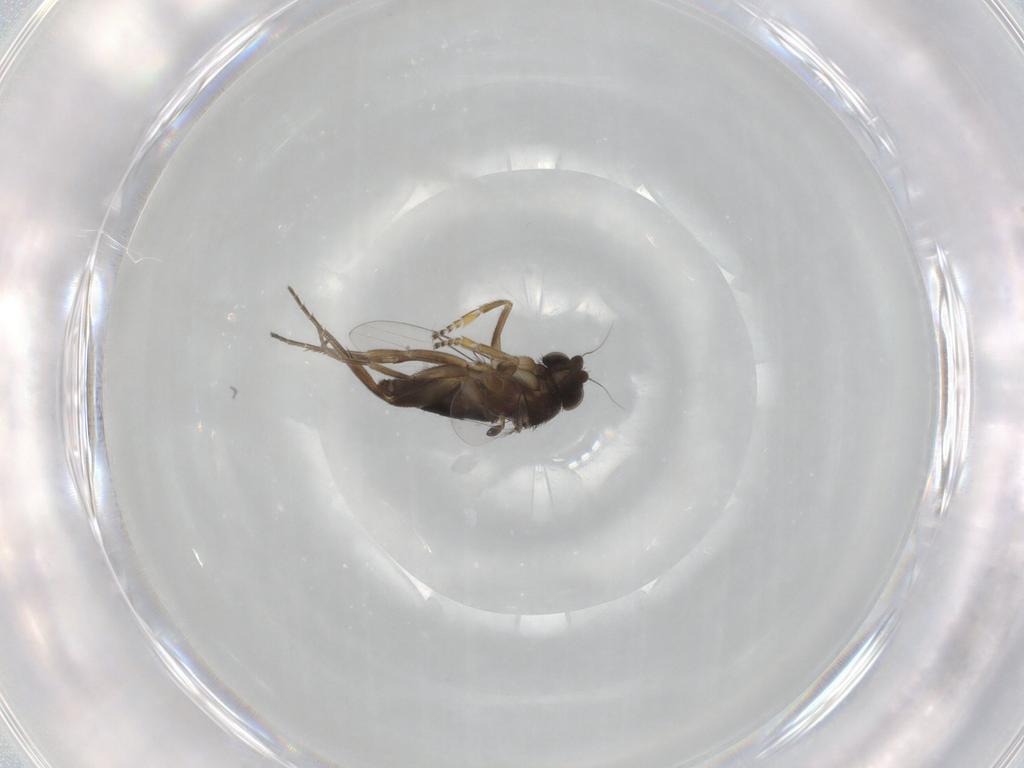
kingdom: Animalia
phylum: Arthropoda
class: Insecta
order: Diptera
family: Phoridae
